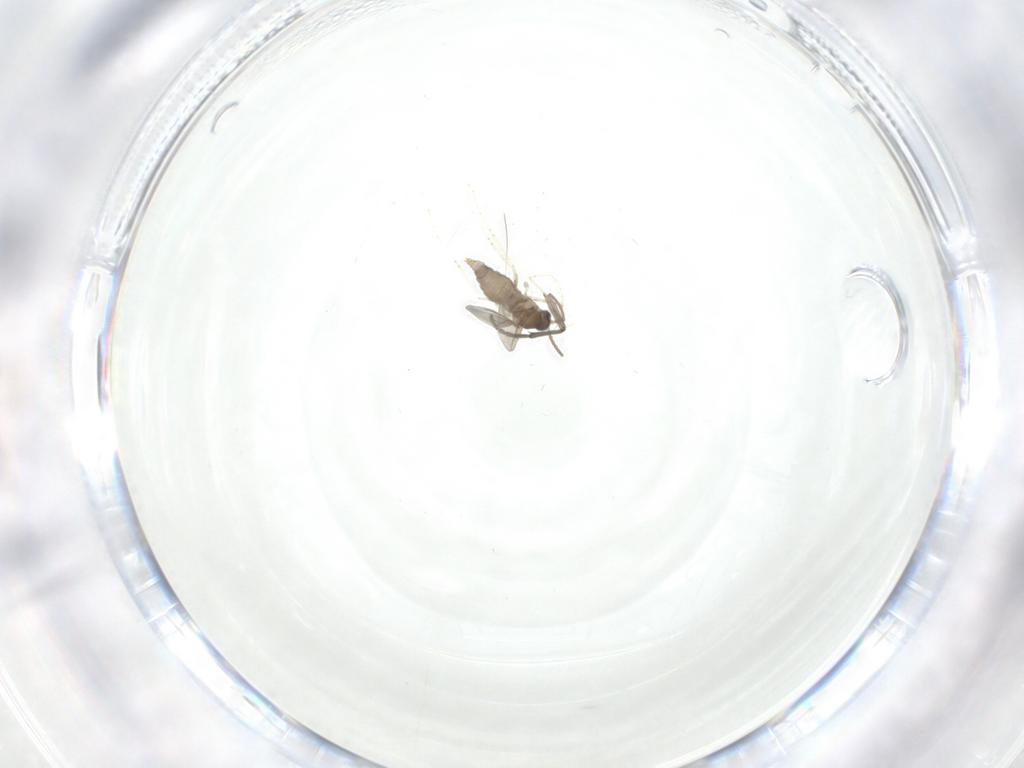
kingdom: Animalia
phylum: Arthropoda
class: Insecta
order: Diptera
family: Cecidomyiidae
